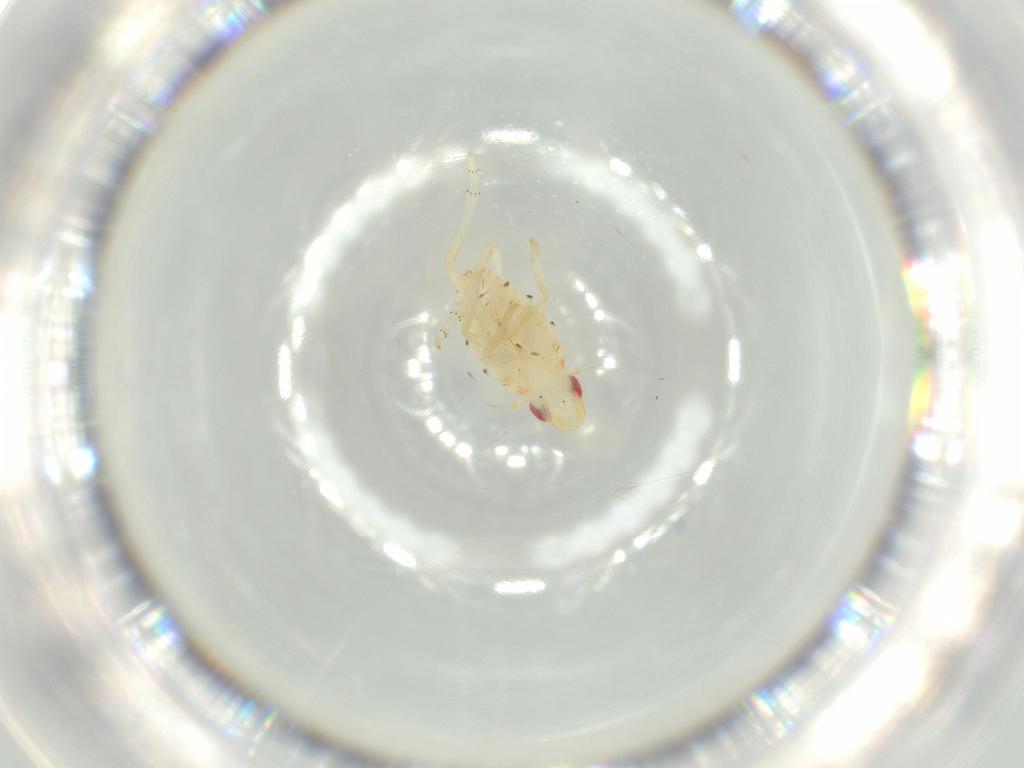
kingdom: Animalia
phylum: Arthropoda
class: Insecta
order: Hemiptera
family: Tropiduchidae
